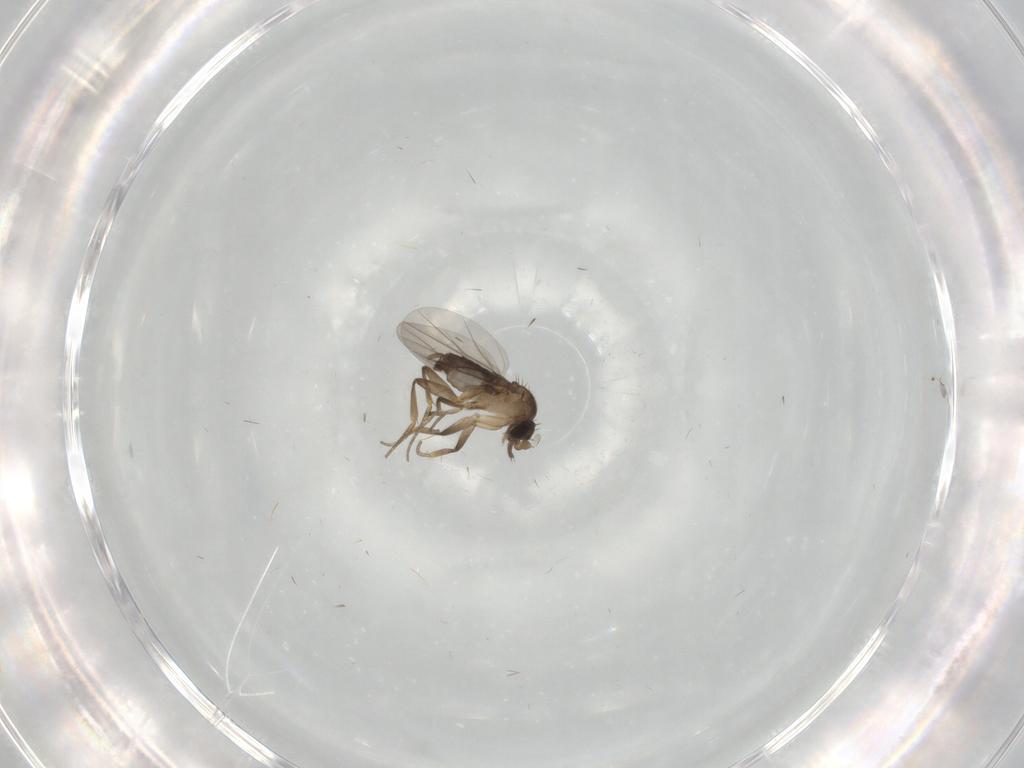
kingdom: Animalia
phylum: Arthropoda
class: Insecta
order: Diptera
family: Phoridae
